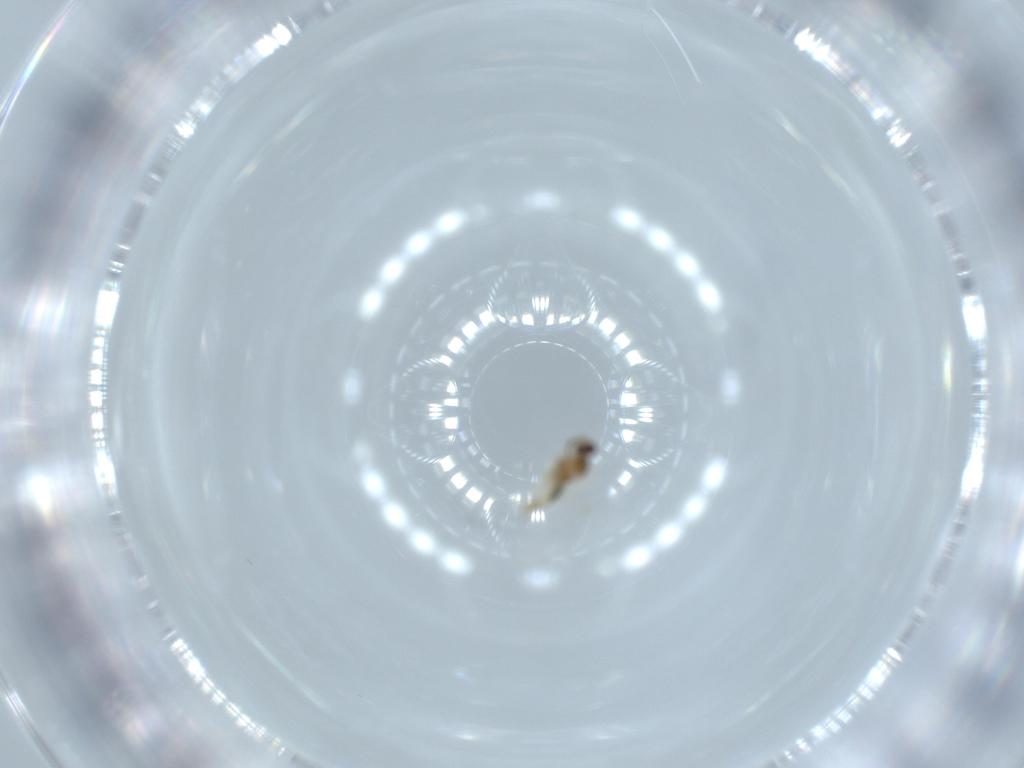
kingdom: Animalia
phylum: Arthropoda
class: Insecta
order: Diptera
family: Cecidomyiidae
